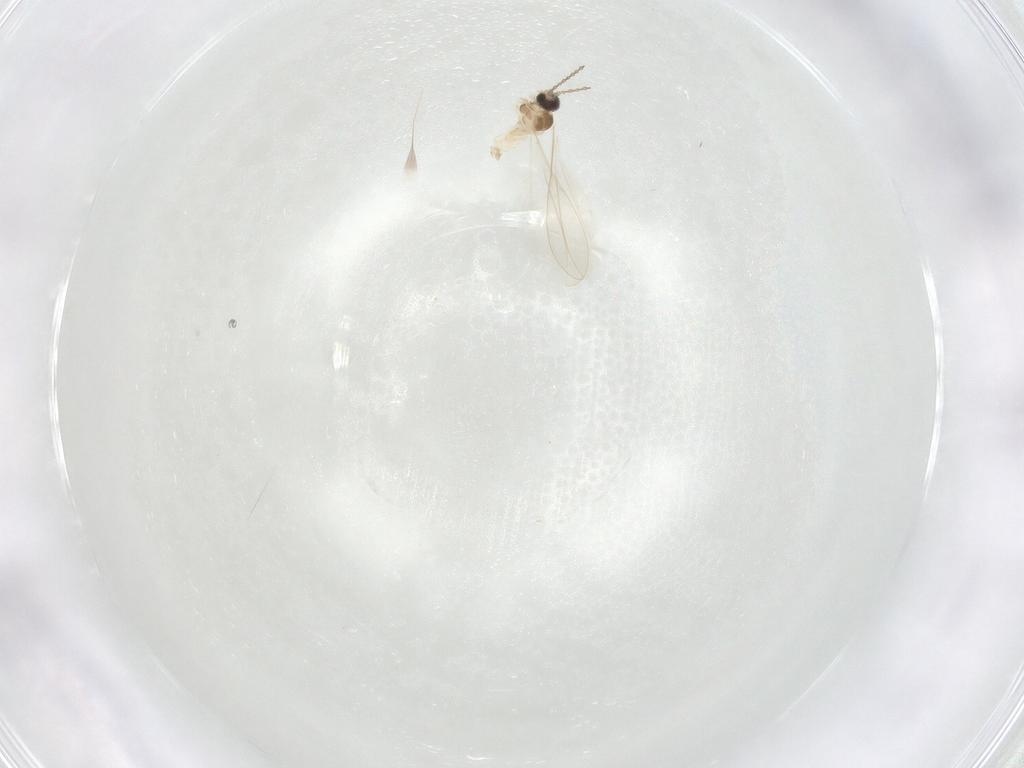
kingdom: Animalia
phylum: Arthropoda
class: Insecta
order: Diptera
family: Cecidomyiidae
